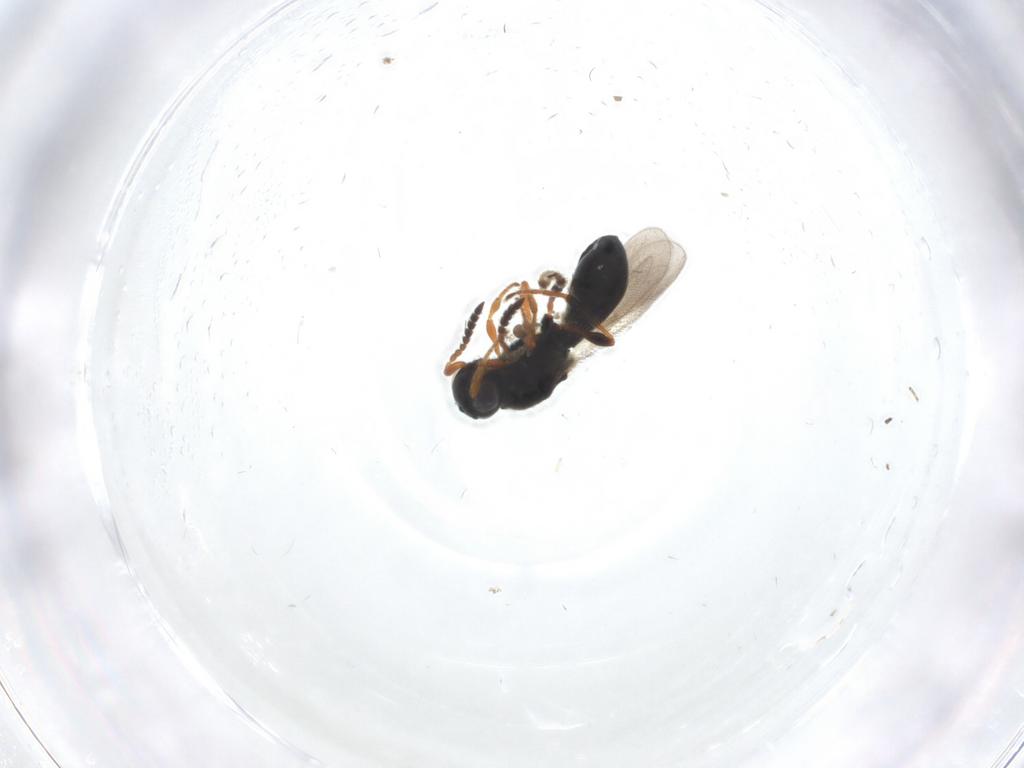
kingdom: Animalia
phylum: Arthropoda
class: Insecta
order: Hymenoptera
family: Platygastridae
